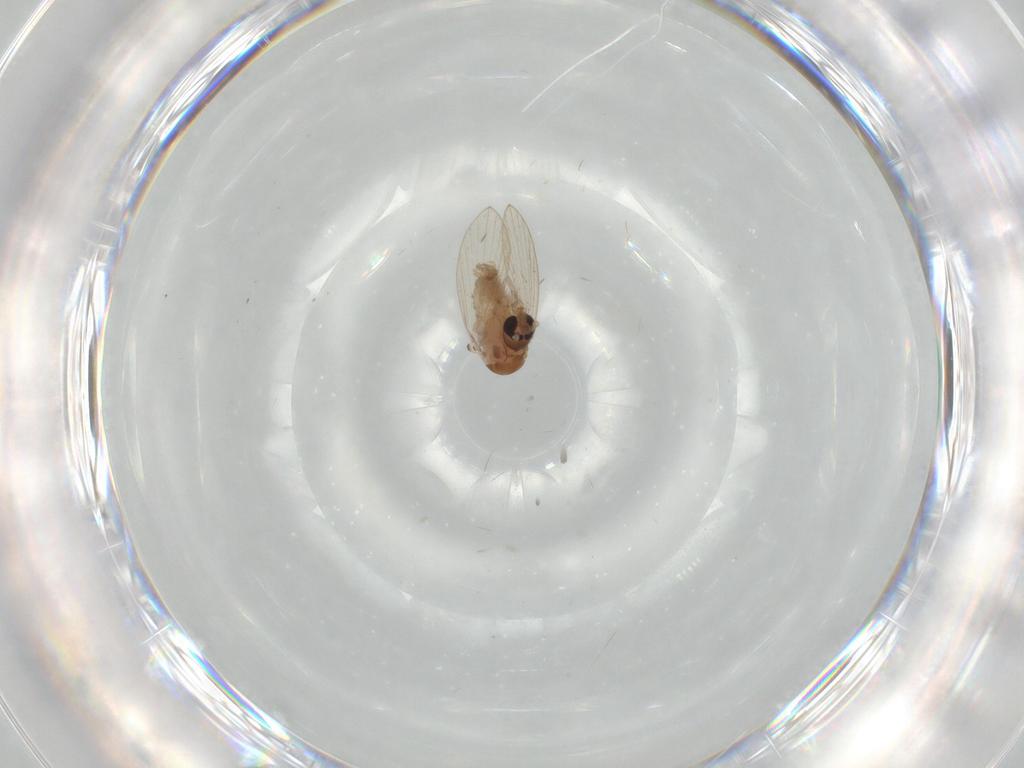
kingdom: Animalia
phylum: Arthropoda
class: Insecta
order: Diptera
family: Psychodidae
